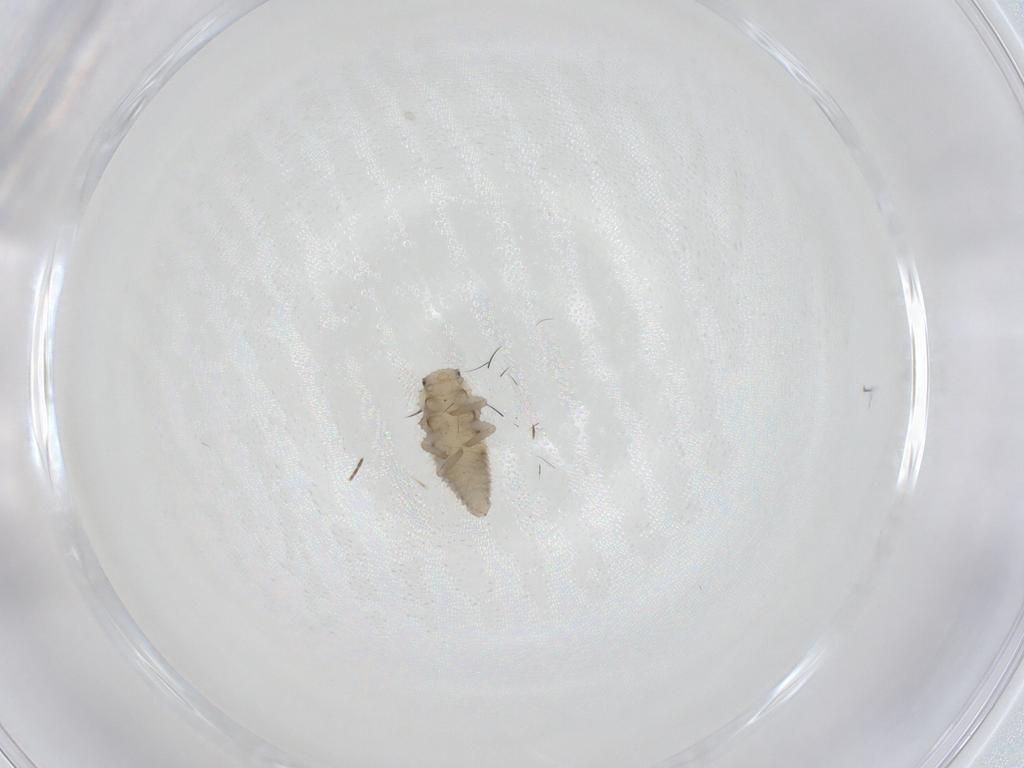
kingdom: Animalia
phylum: Arthropoda
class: Insecta
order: Coleoptera
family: Coccinellidae
